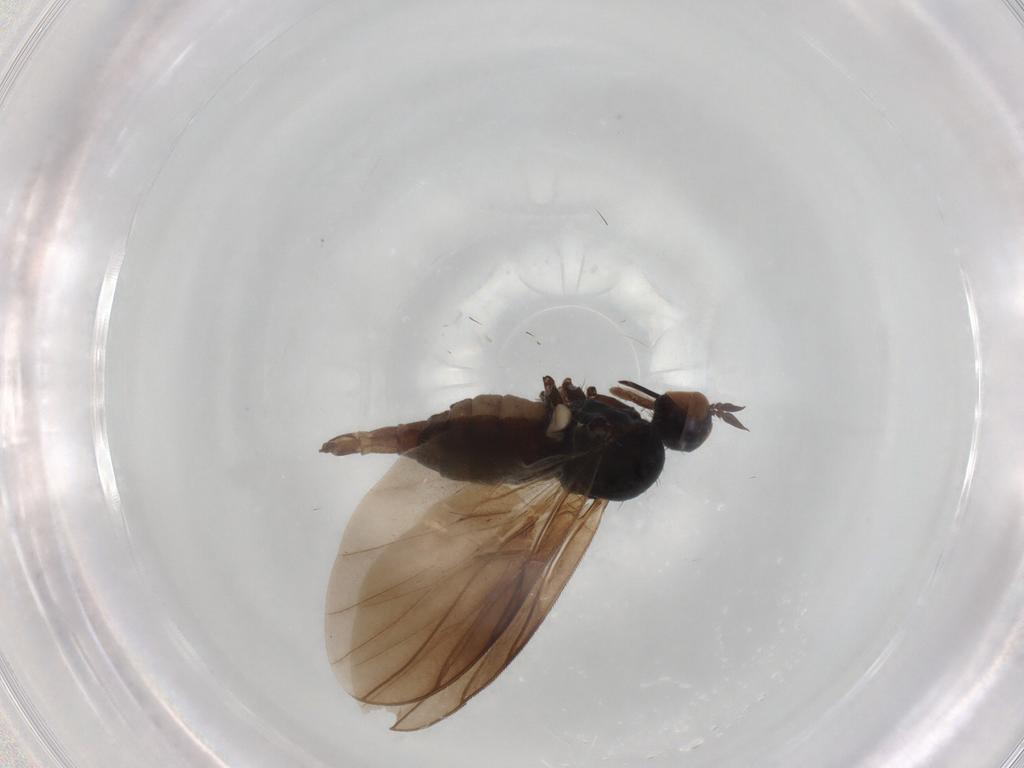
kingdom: Animalia
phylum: Arthropoda
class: Insecta
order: Diptera
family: Empididae
